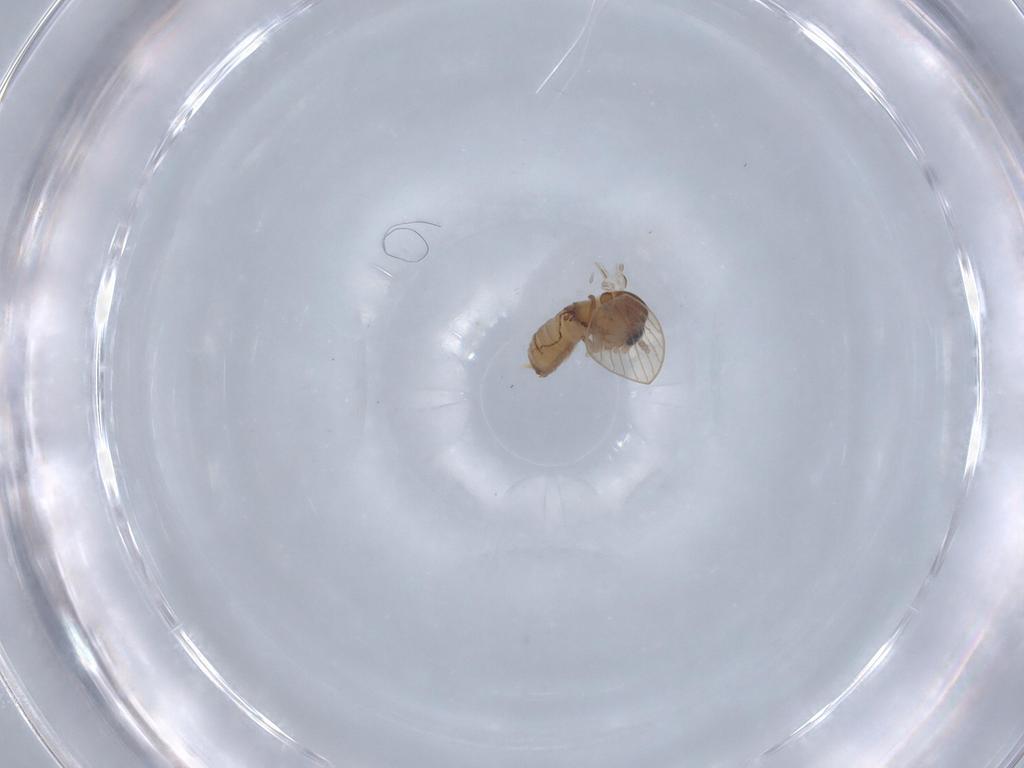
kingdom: Animalia
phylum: Arthropoda
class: Insecta
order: Diptera
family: Psychodidae
